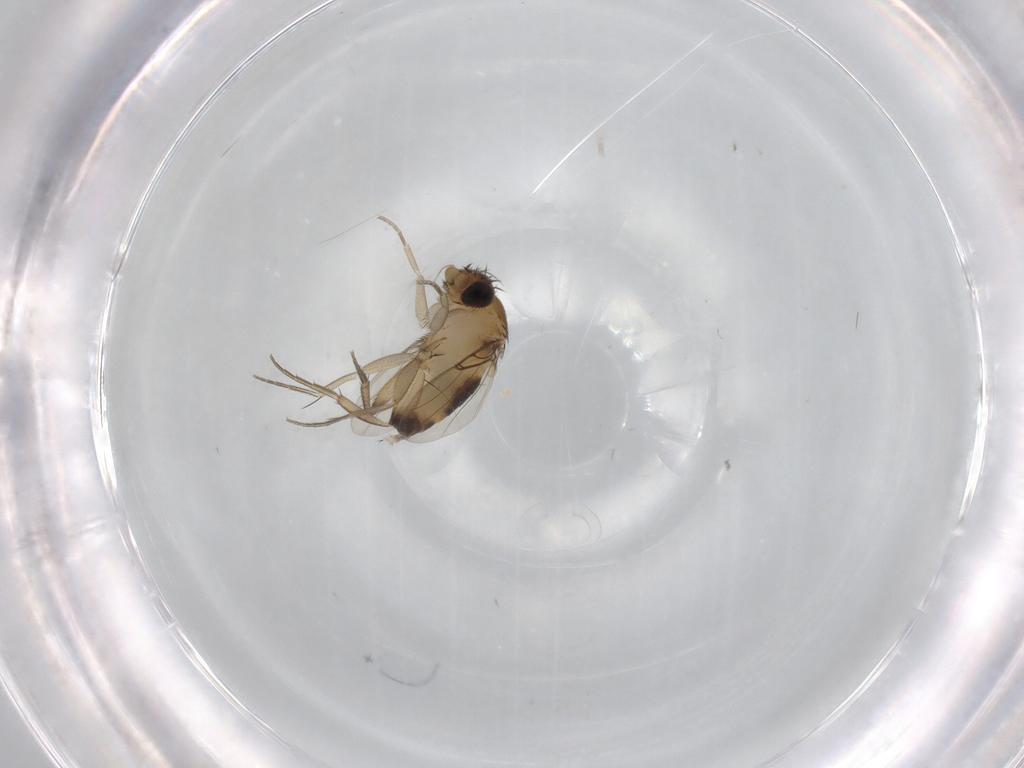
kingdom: Animalia
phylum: Arthropoda
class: Insecta
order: Diptera
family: Phoridae
